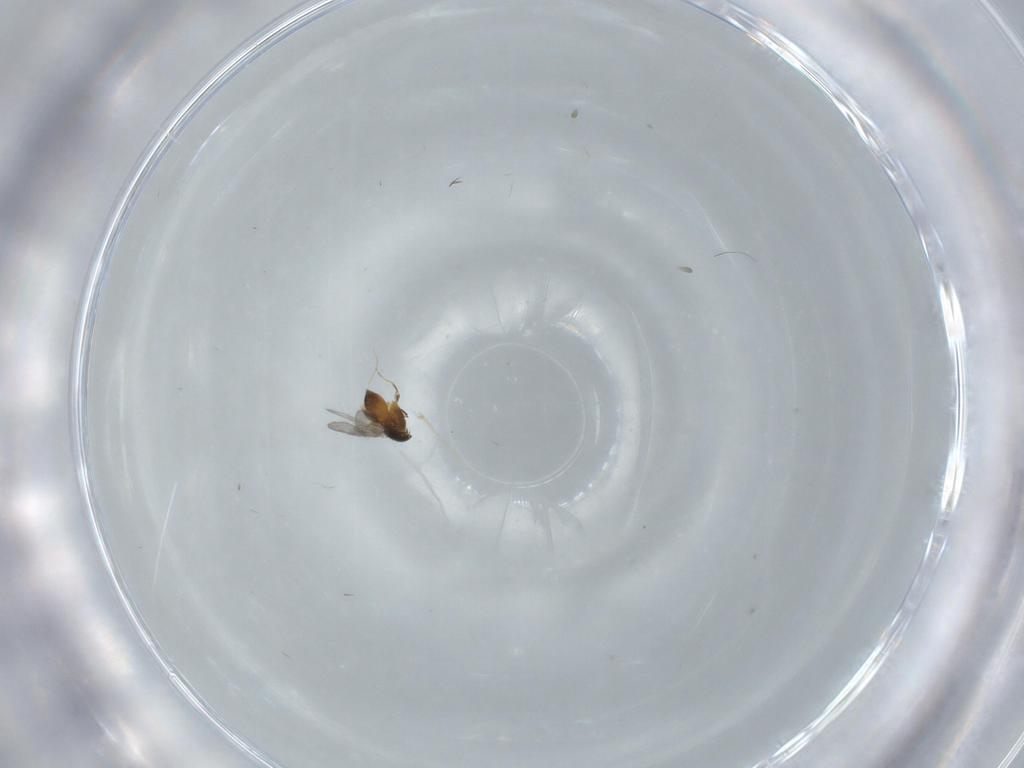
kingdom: Animalia
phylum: Arthropoda
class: Insecta
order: Hymenoptera
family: Ceraphronidae
